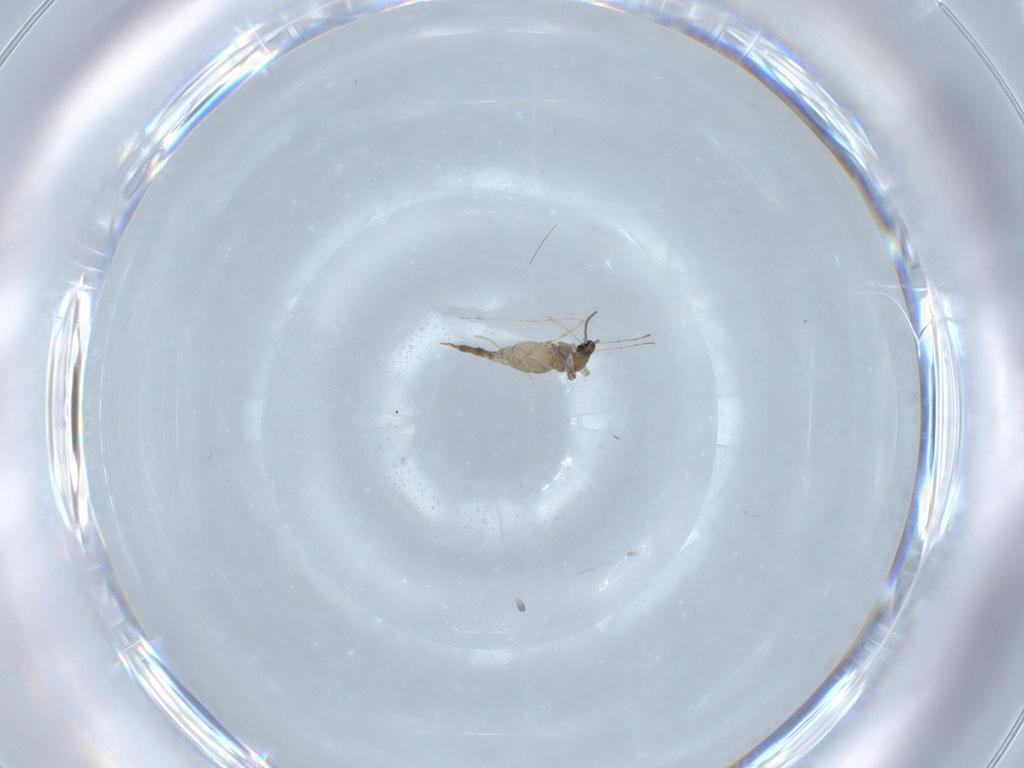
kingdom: Animalia
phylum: Arthropoda
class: Insecta
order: Diptera
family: Cecidomyiidae
